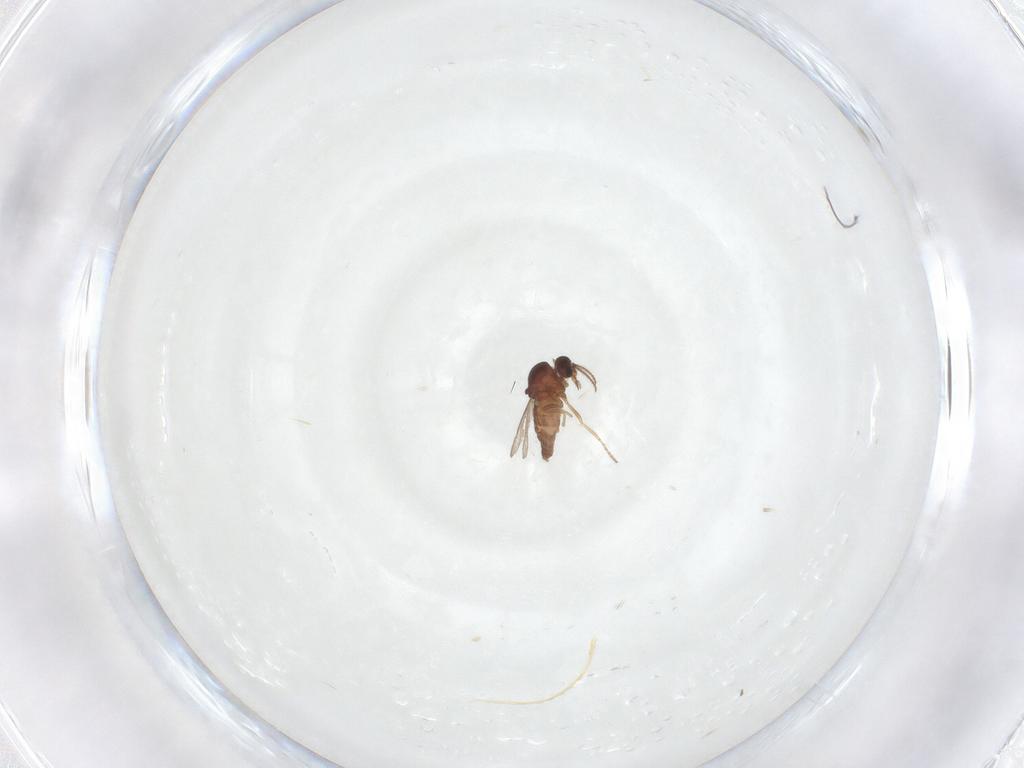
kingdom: Animalia
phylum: Arthropoda
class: Insecta
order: Diptera
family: Ceratopogonidae
